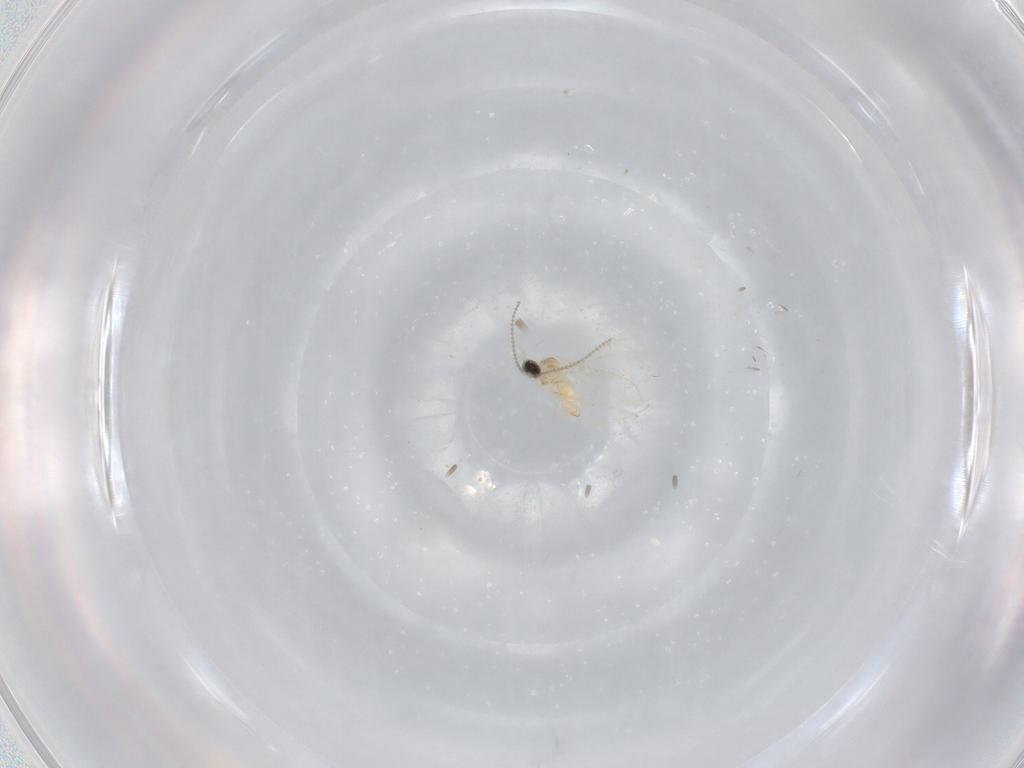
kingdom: Animalia
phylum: Arthropoda
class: Insecta
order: Diptera
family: Cecidomyiidae
